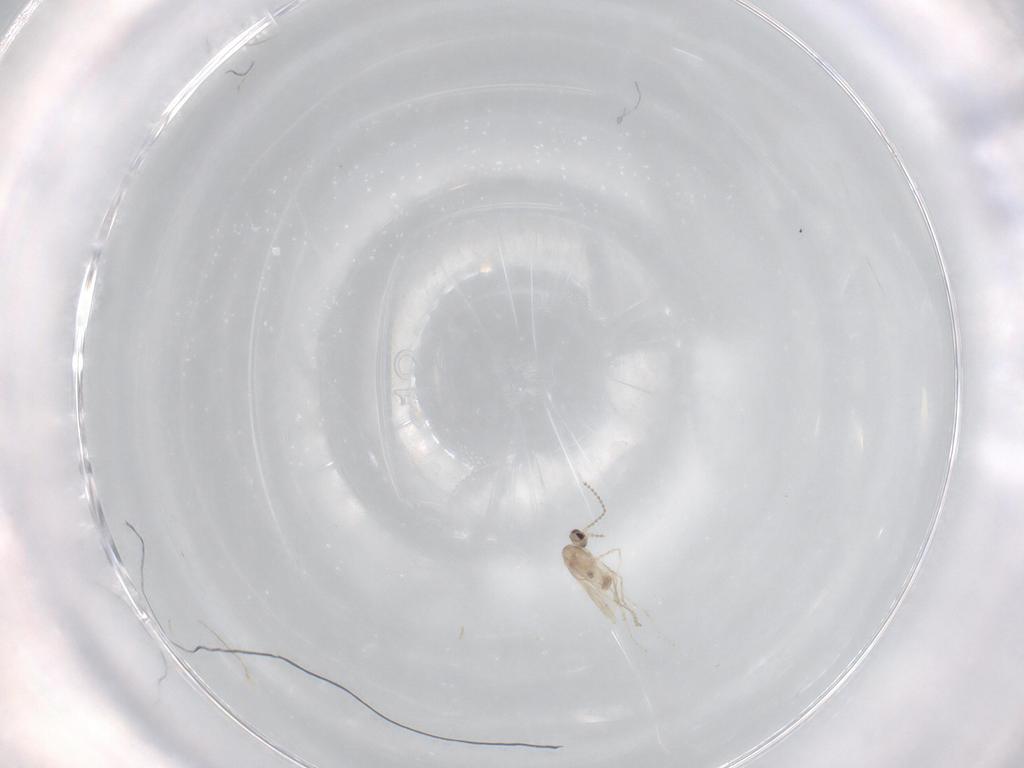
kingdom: Animalia
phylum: Arthropoda
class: Insecta
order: Diptera
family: Cecidomyiidae
